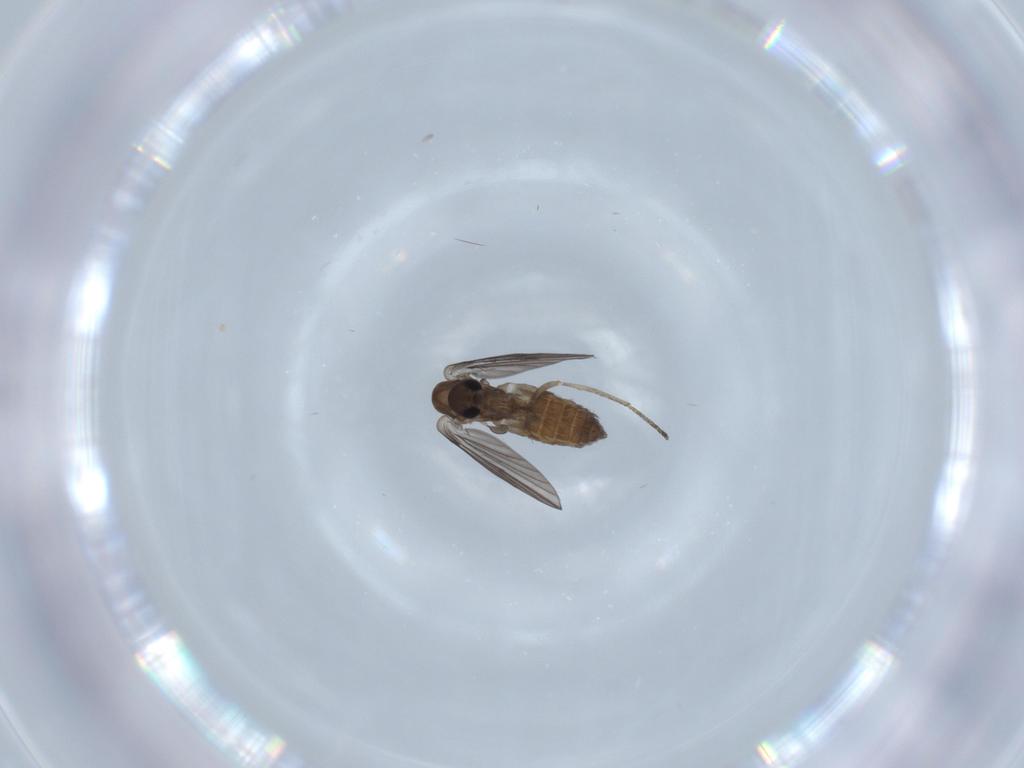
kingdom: Animalia
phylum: Arthropoda
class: Insecta
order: Diptera
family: Psychodidae
